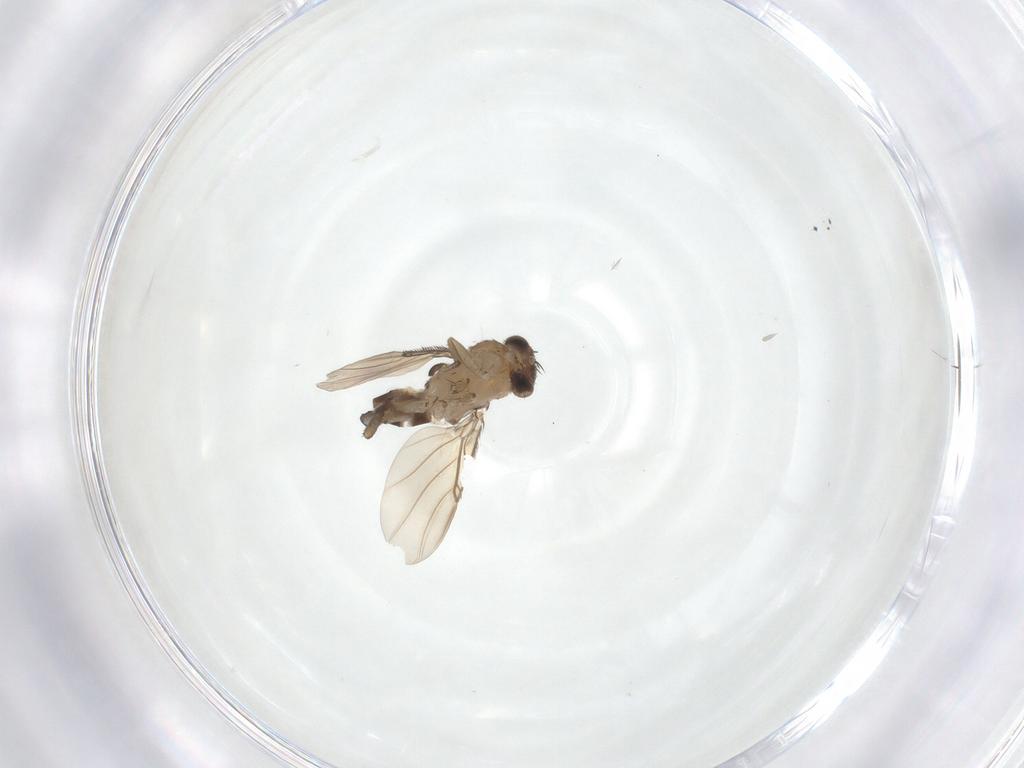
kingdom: Animalia
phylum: Arthropoda
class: Insecta
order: Diptera
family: Phoridae
